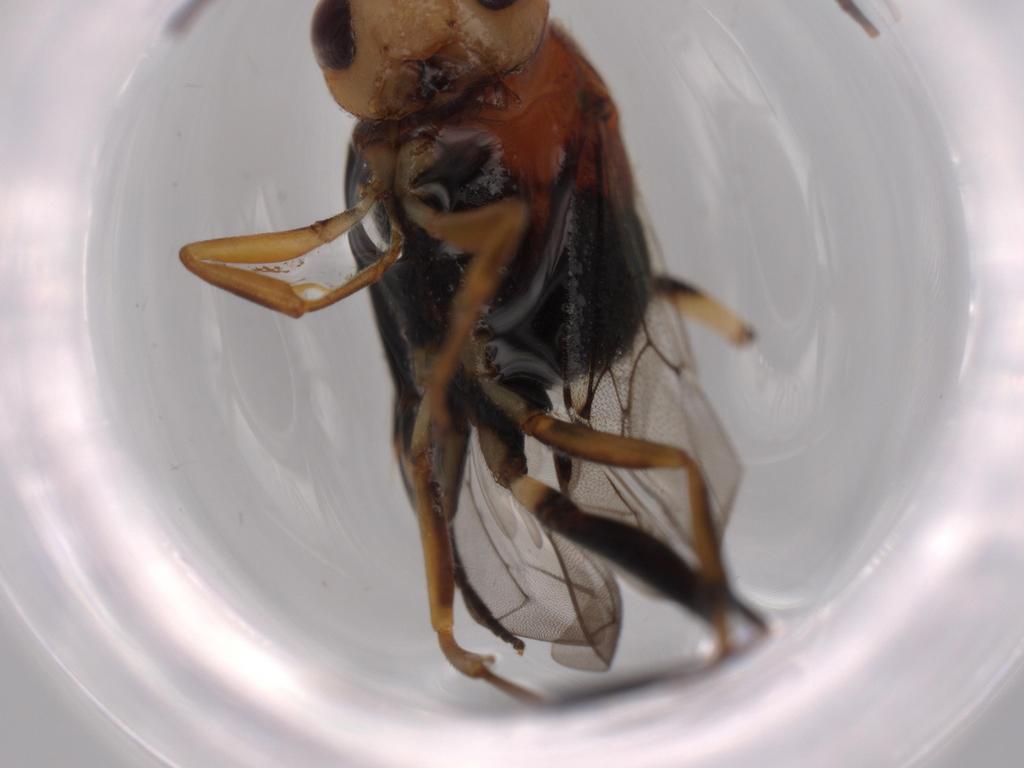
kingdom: Animalia
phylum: Arthropoda
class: Insecta
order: Hymenoptera
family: Evaniidae
